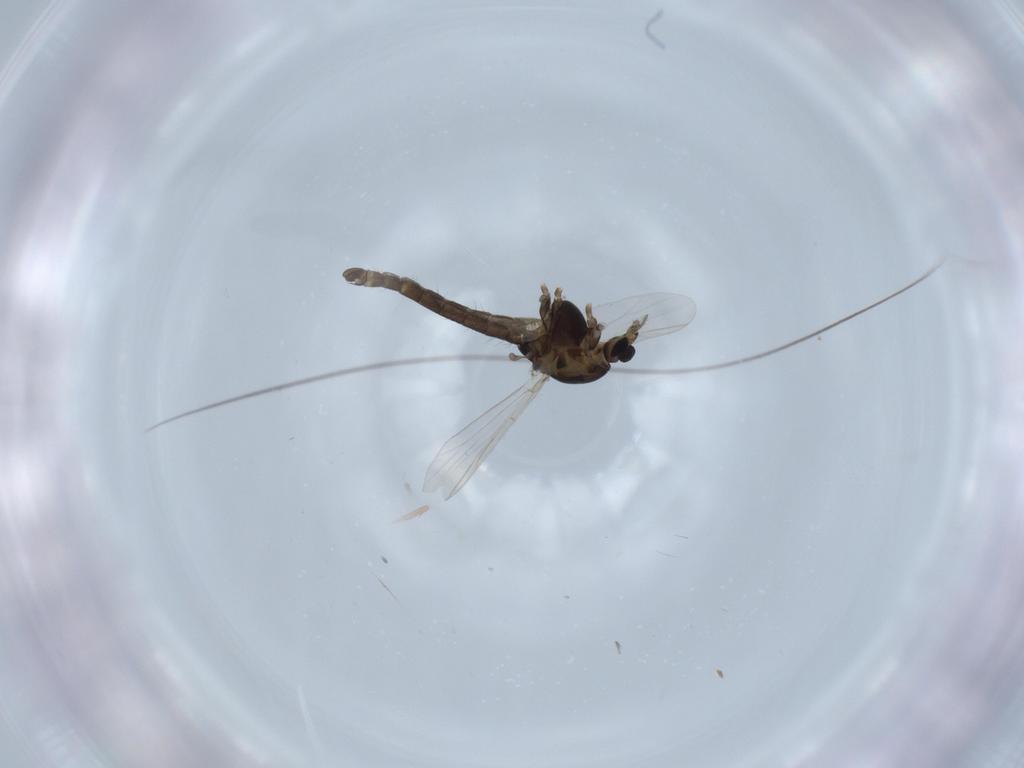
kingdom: Animalia
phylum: Arthropoda
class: Insecta
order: Diptera
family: Chironomidae
